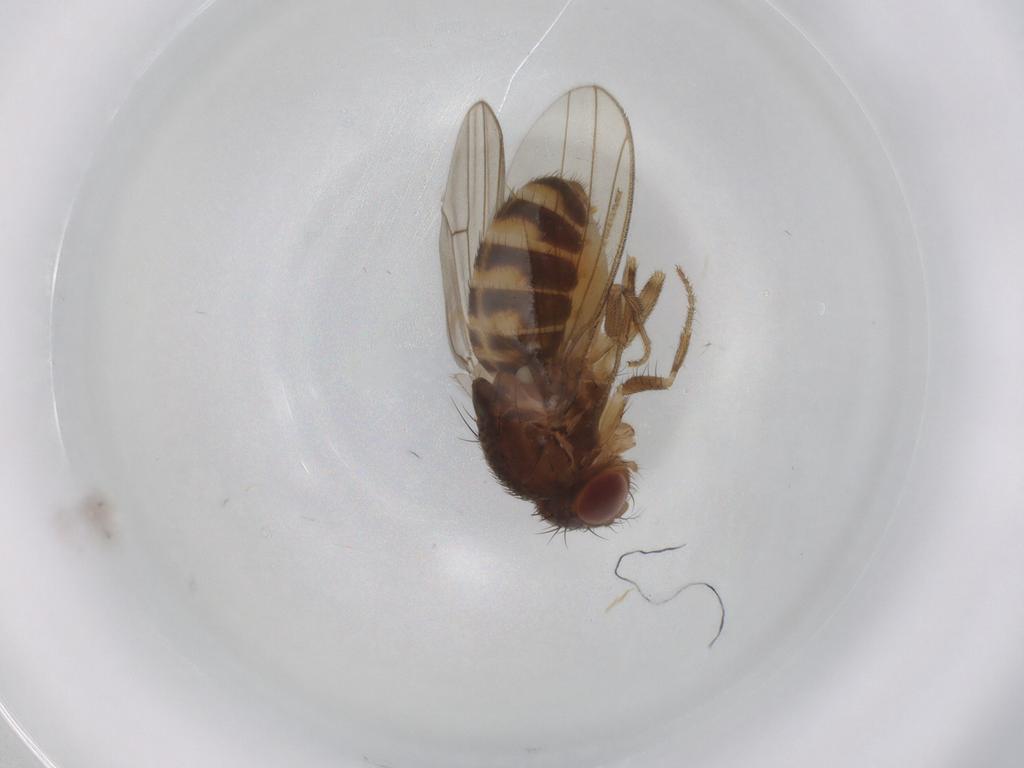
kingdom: Animalia
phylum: Arthropoda
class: Insecta
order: Diptera
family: Drosophilidae
